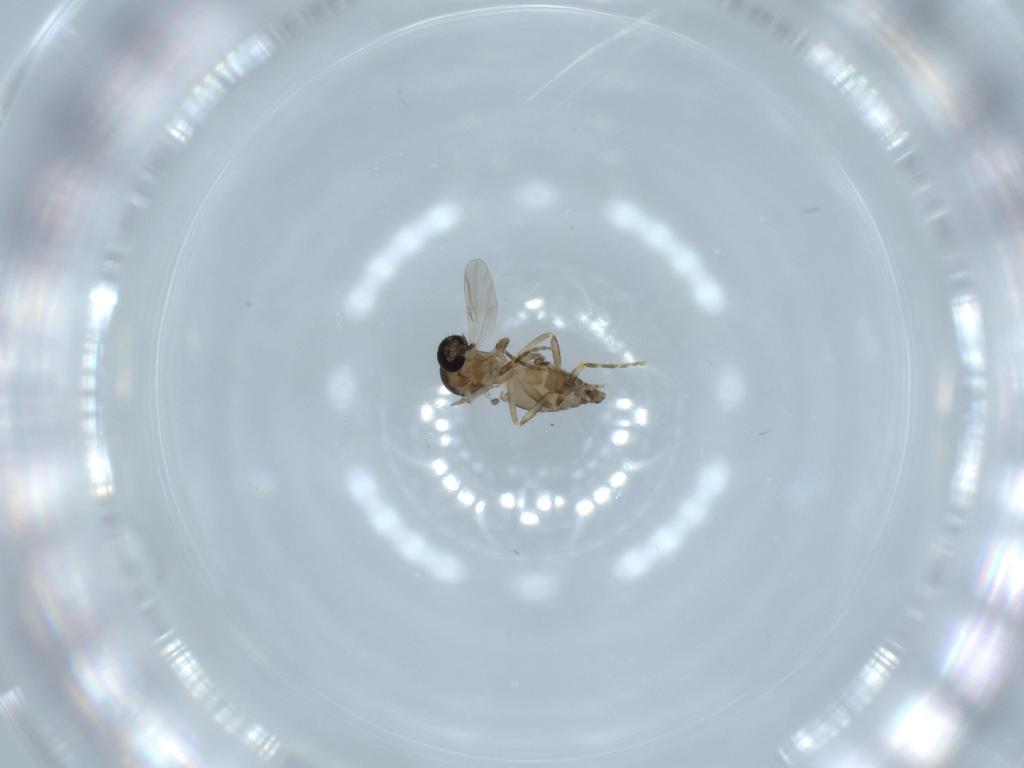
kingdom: Animalia
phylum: Arthropoda
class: Insecta
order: Diptera
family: Ceratopogonidae
